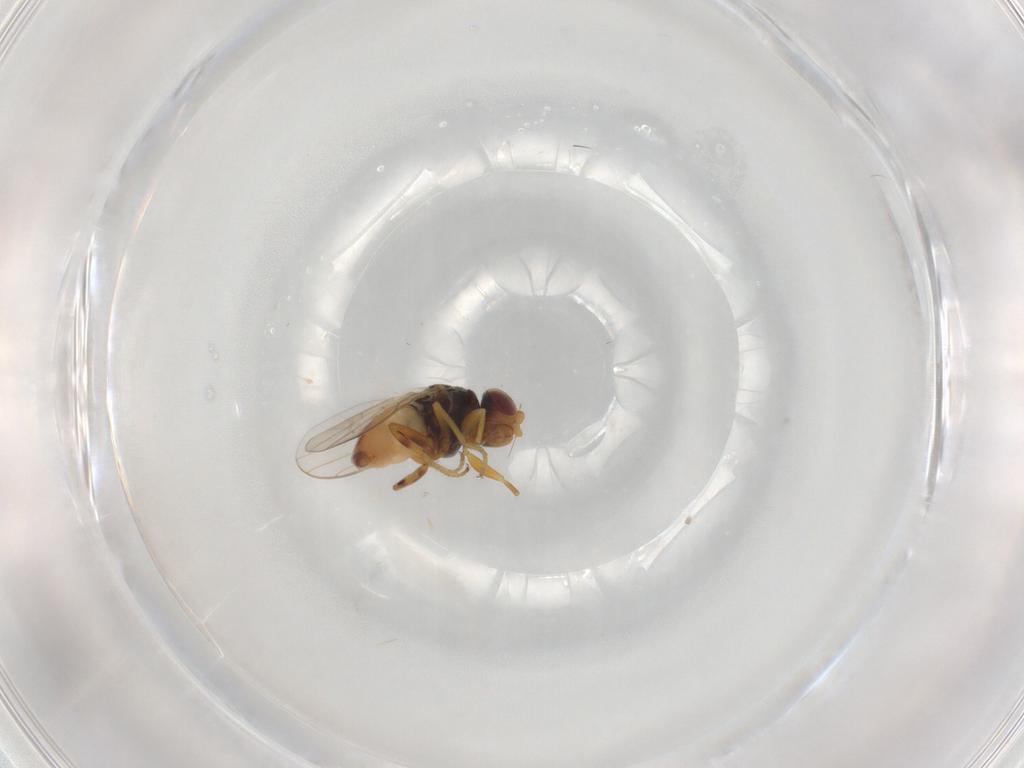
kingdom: Animalia
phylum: Arthropoda
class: Insecta
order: Diptera
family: Chloropidae
